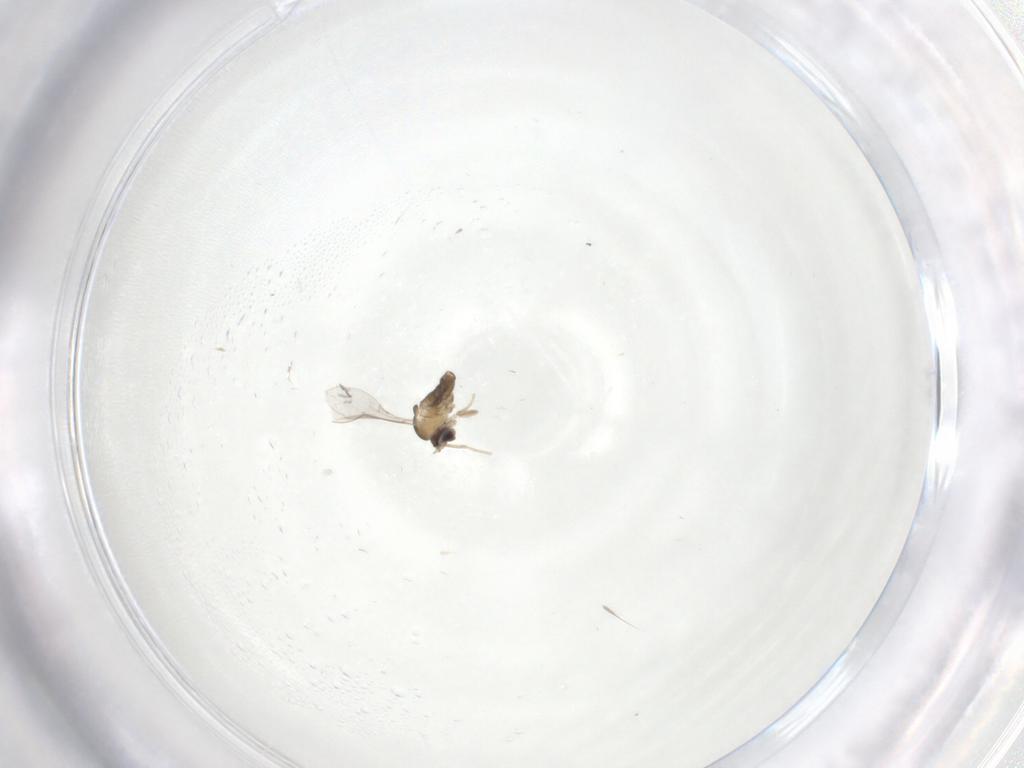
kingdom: Animalia
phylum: Arthropoda
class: Insecta
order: Diptera
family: Cecidomyiidae
